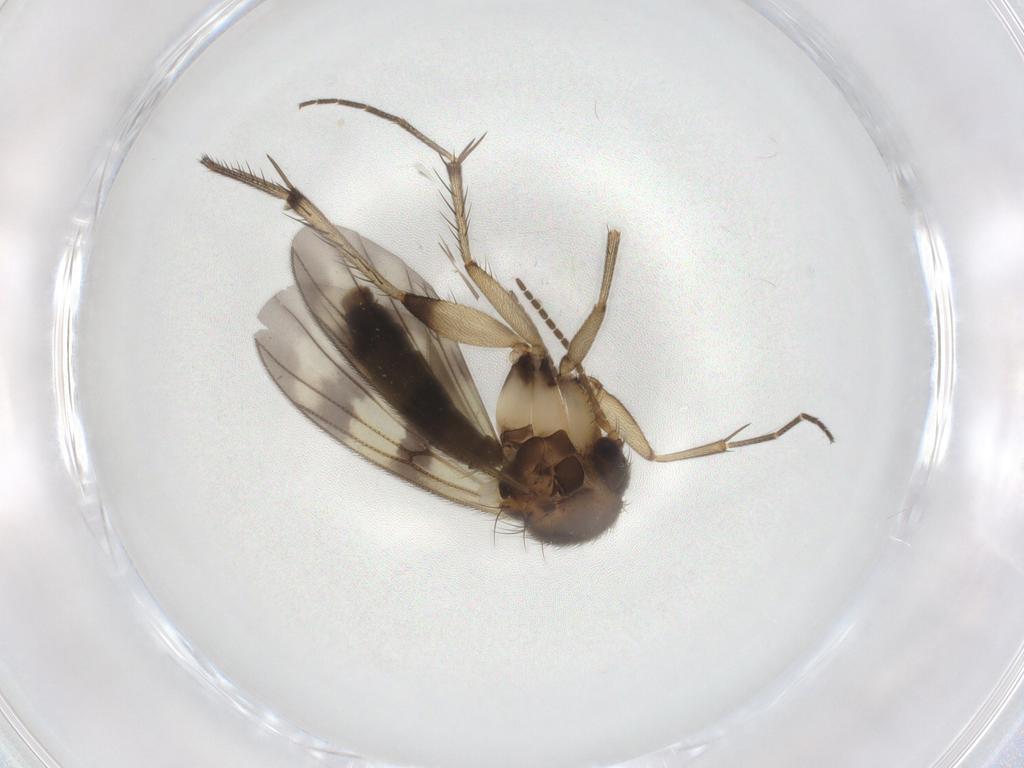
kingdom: Animalia
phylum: Arthropoda
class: Insecta
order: Diptera
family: Mycetophilidae
